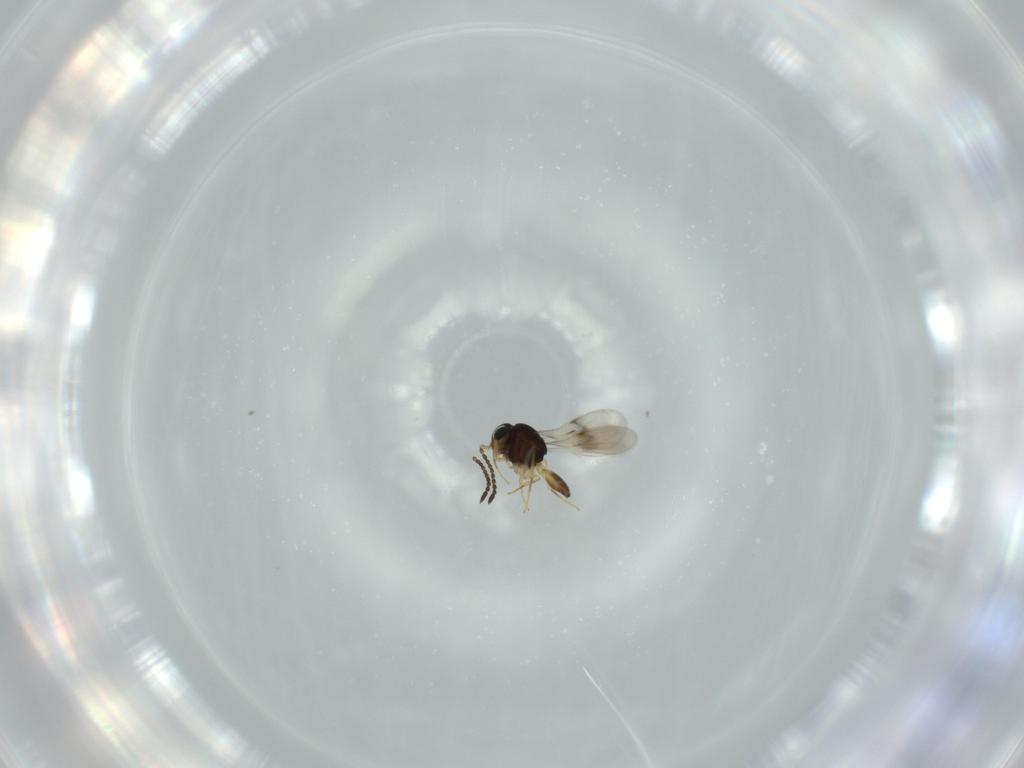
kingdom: Animalia
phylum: Arthropoda
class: Insecta
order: Hymenoptera
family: Scelionidae
